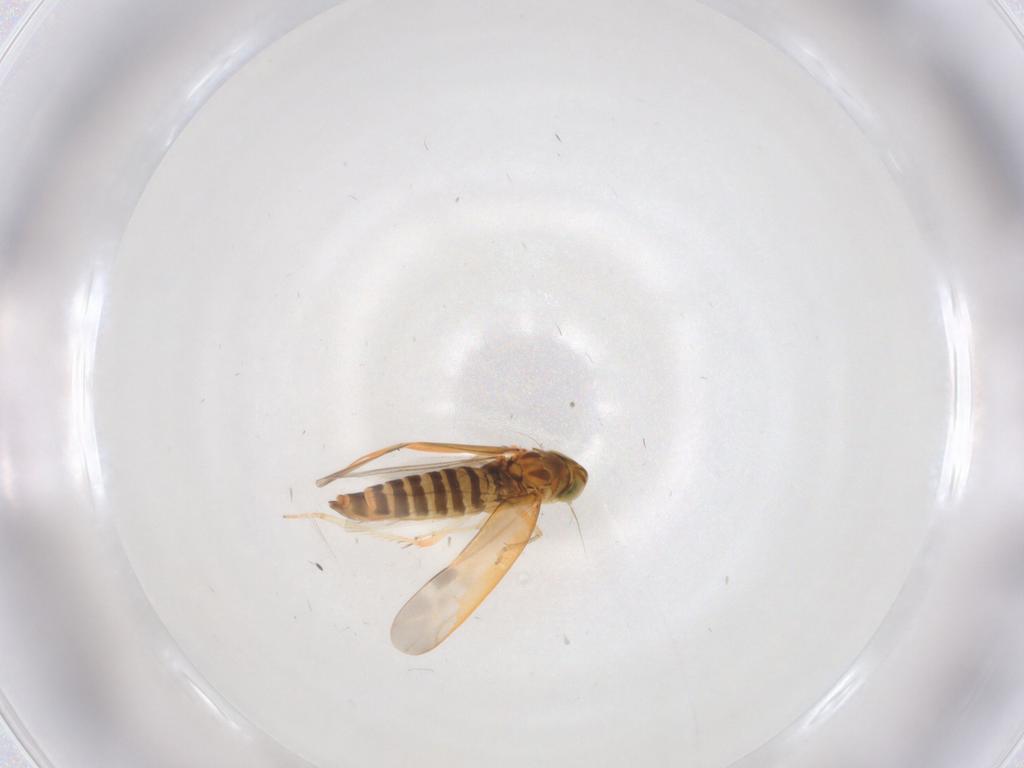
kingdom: Animalia
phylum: Arthropoda
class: Insecta
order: Hemiptera
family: Cicadellidae
